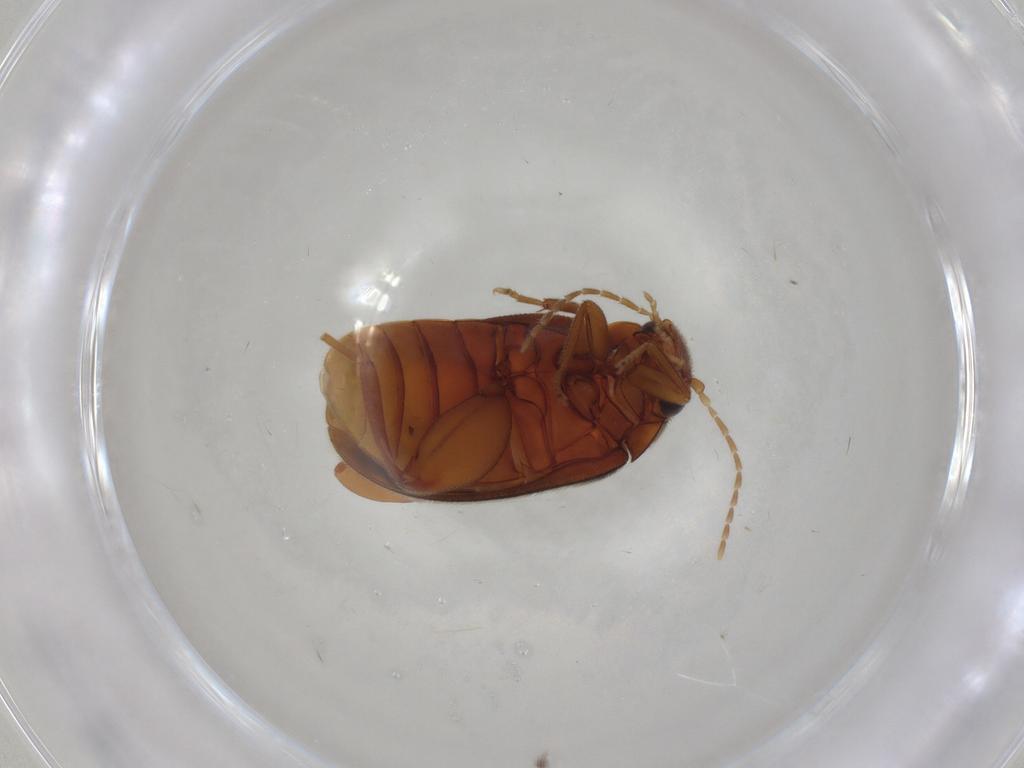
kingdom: Animalia
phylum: Arthropoda
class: Insecta
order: Coleoptera
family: Scirtidae
